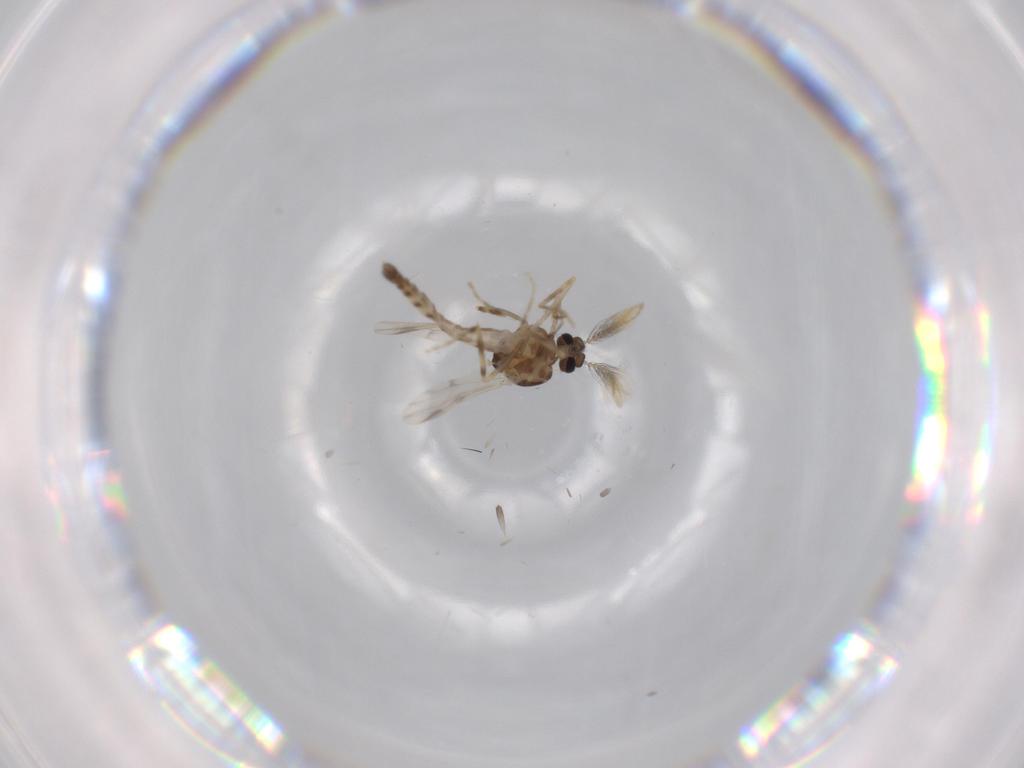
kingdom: Animalia
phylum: Arthropoda
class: Insecta
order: Diptera
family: Ceratopogonidae
